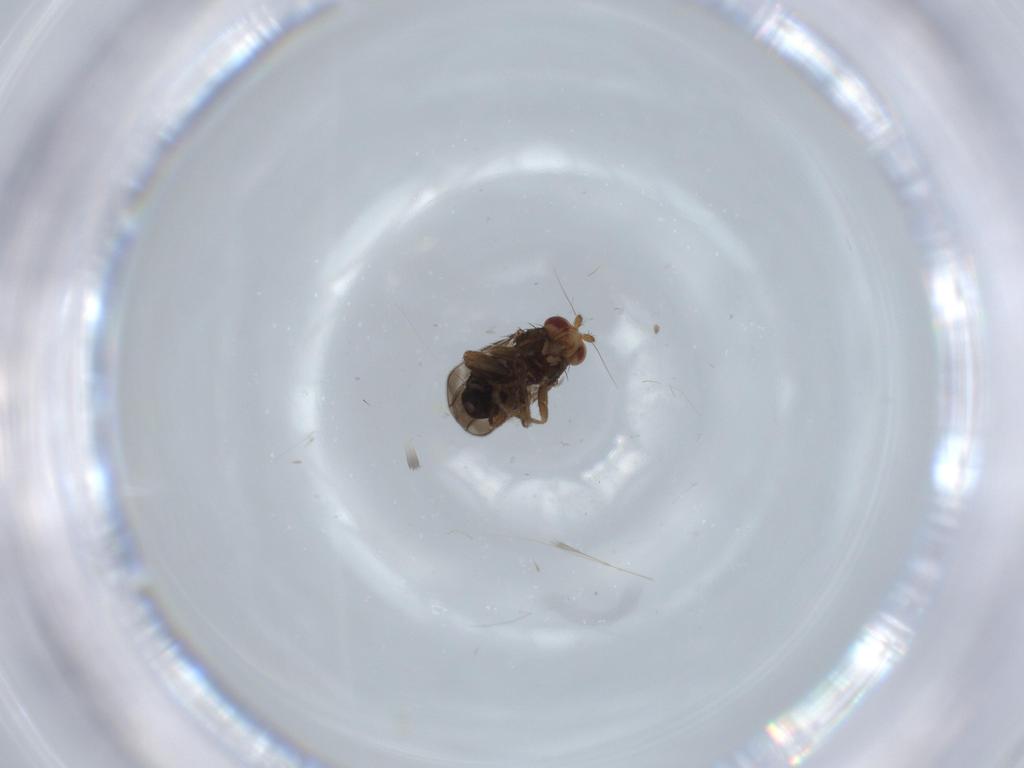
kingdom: Animalia
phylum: Arthropoda
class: Insecta
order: Diptera
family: Sphaeroceridae
